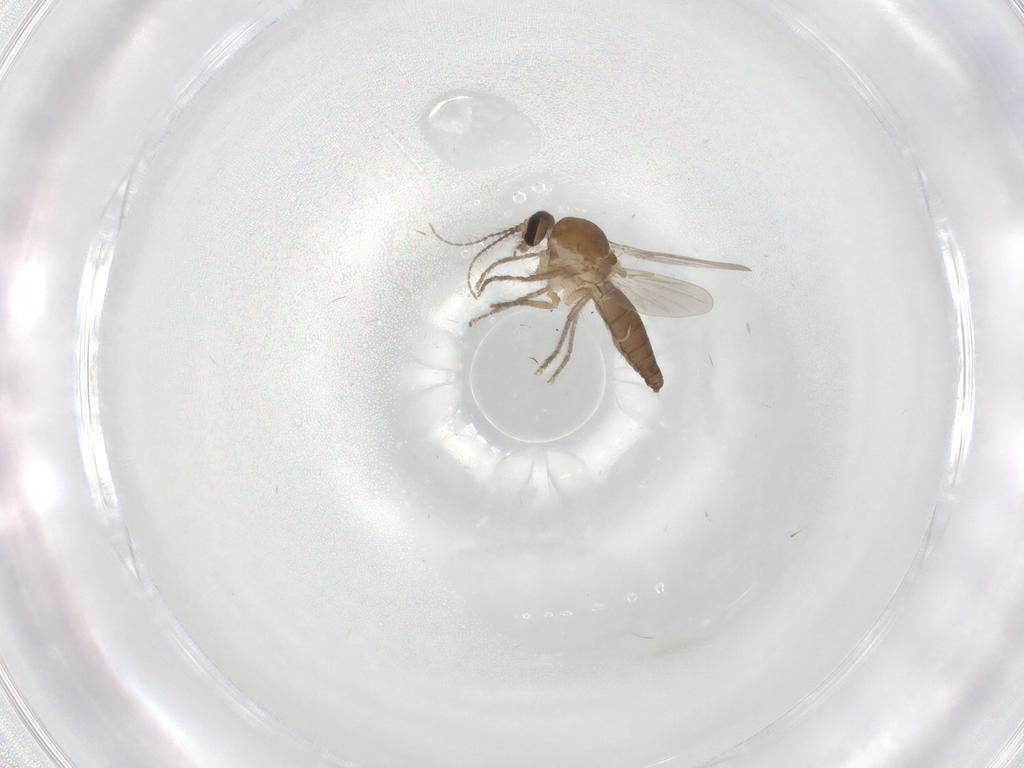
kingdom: Animalia
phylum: Arthropoda
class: Insecta
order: Diptera
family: Ceratopogonidae
